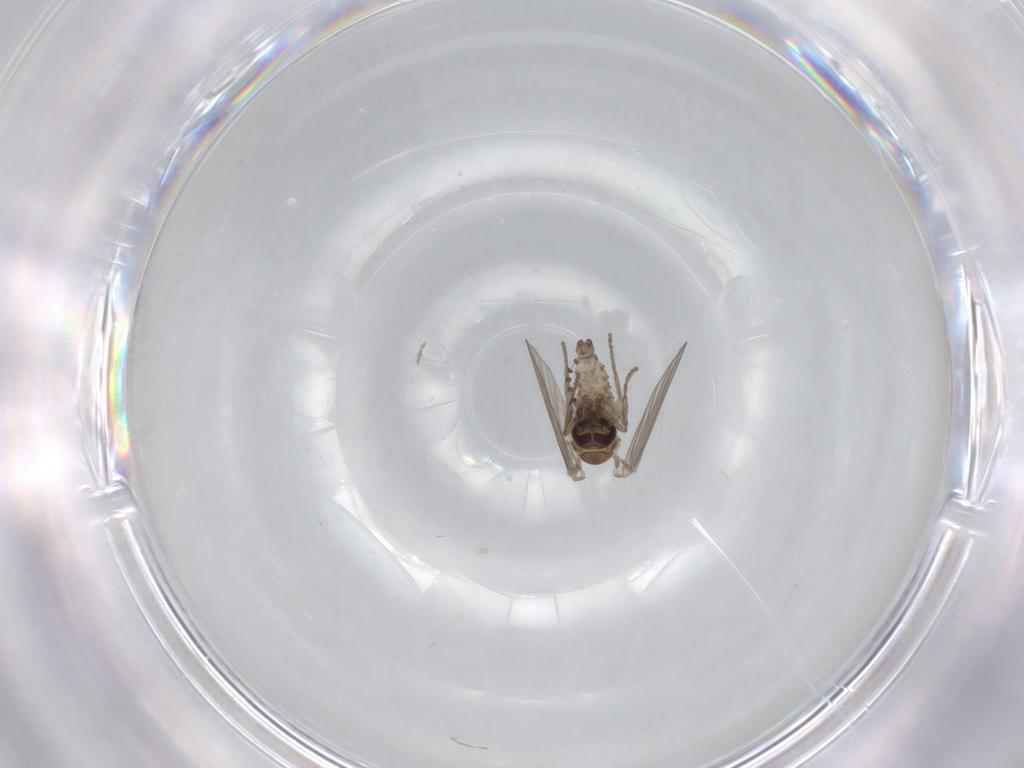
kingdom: Animalia
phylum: Arthropoda
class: Insecta
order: Diptera
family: Psychodidae
